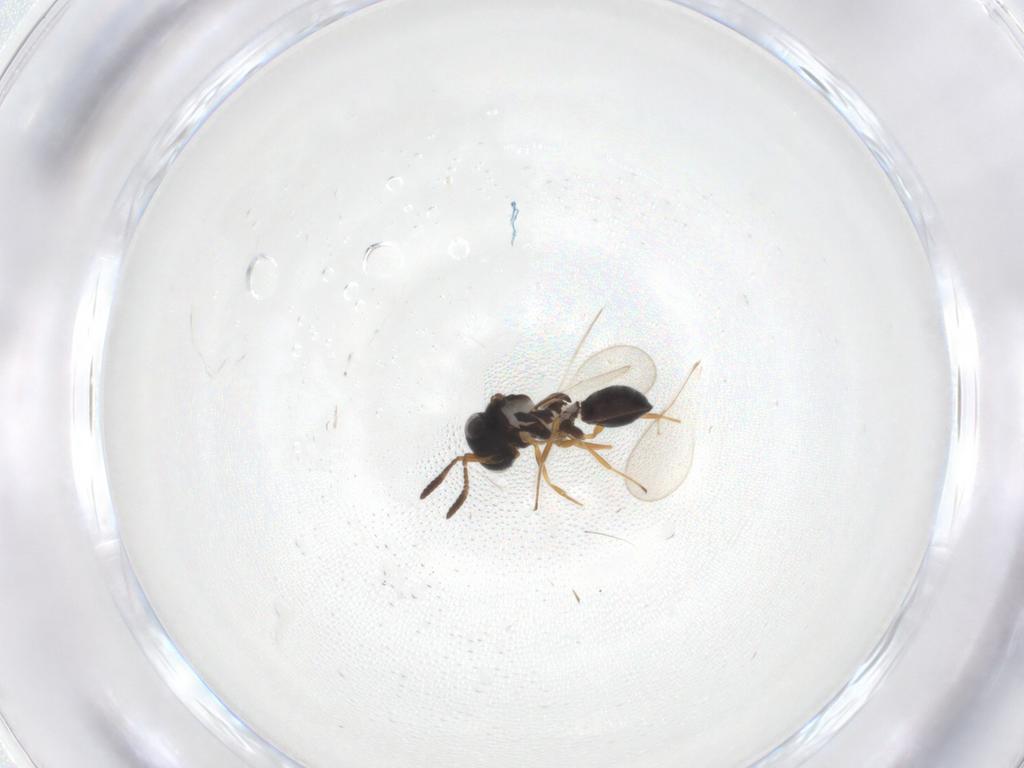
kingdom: Animalia
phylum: Arthropoda
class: Insecta
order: Hymenoptera
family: Scelionidae
